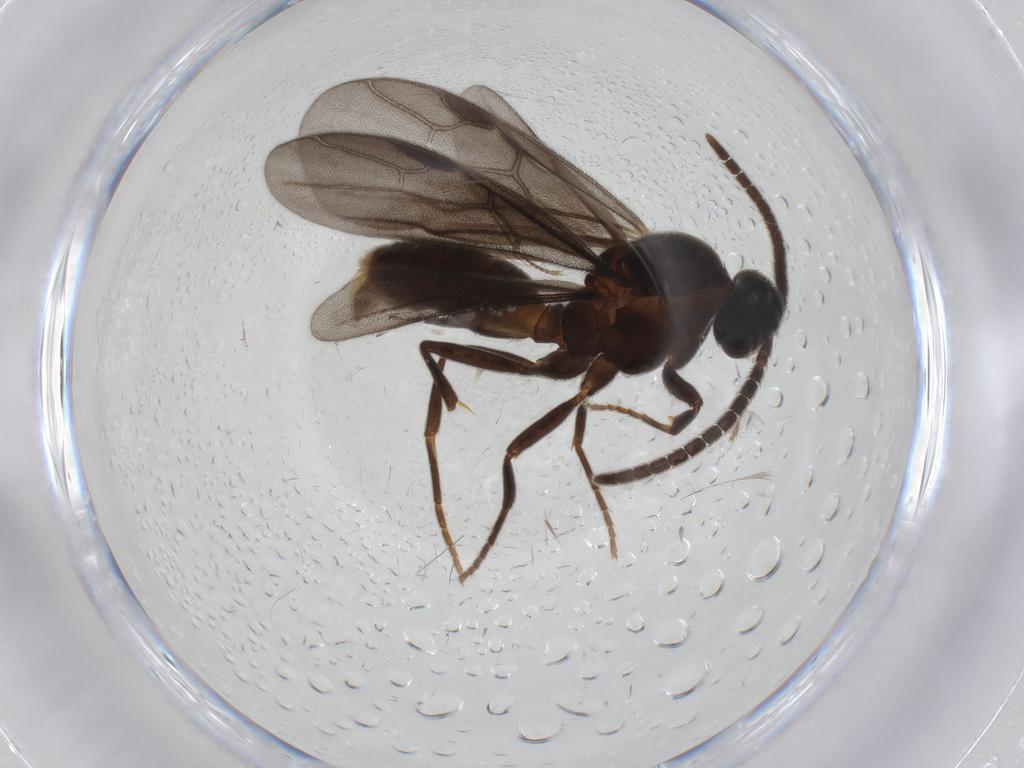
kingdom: Animalia
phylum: Arthropoda
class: Insecta
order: Hymenoptera
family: Formicidae
